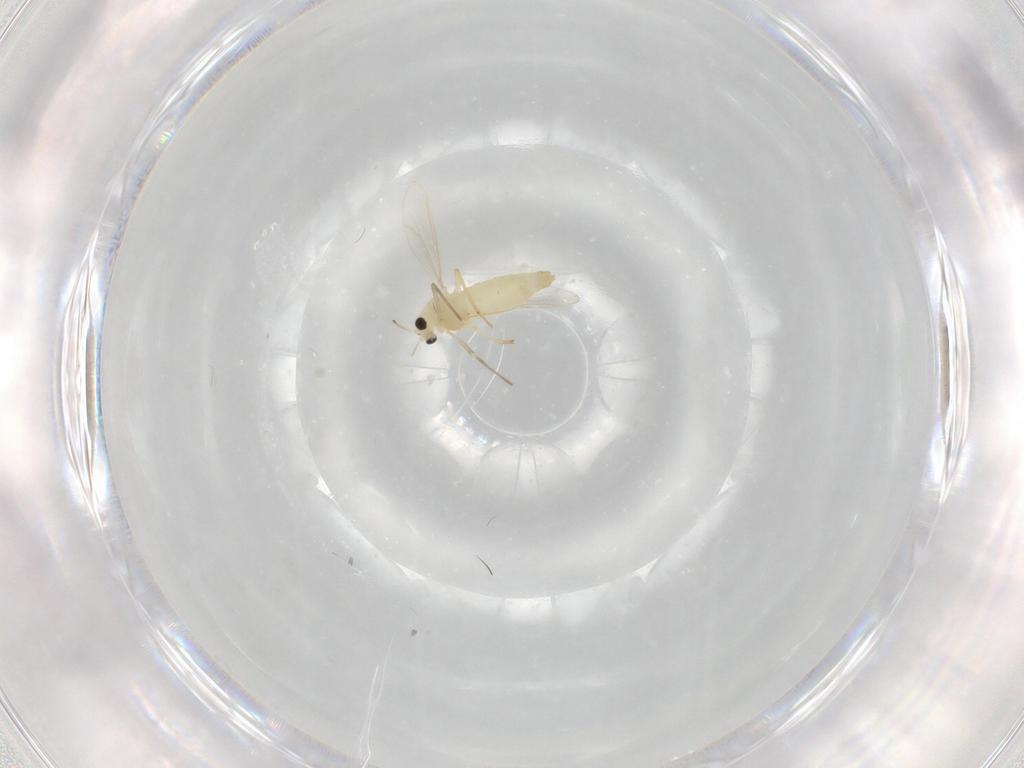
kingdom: Animalia
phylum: Arthropoda
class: Insecta
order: Diptera
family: Chironomidae
